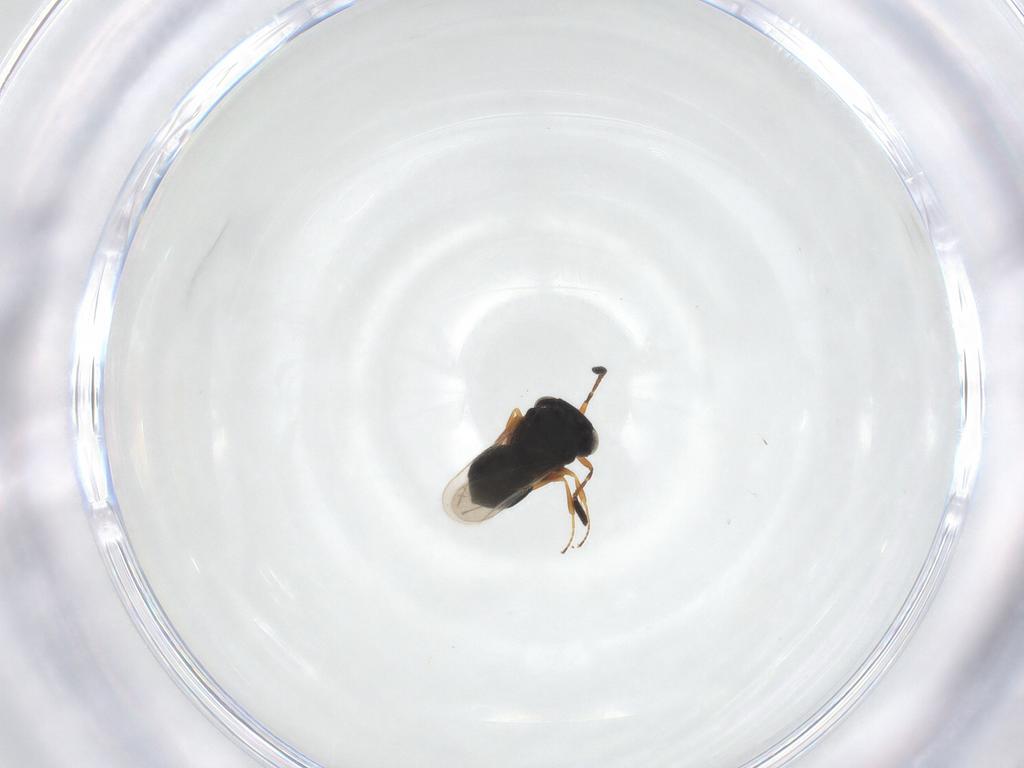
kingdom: Animalia
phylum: Arthropoda
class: Insecta
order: Hymenoptera
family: Scelionidae
